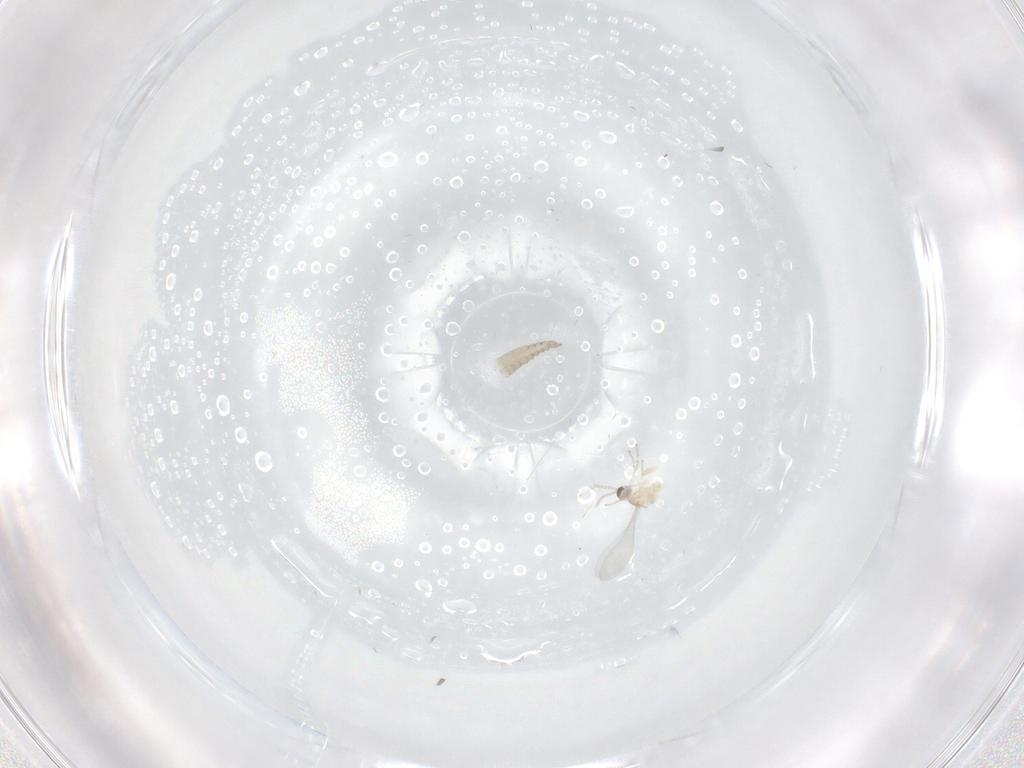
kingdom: Animalia
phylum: Arthropoda
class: Insecta
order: Diptera
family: Cecidomyiidae
